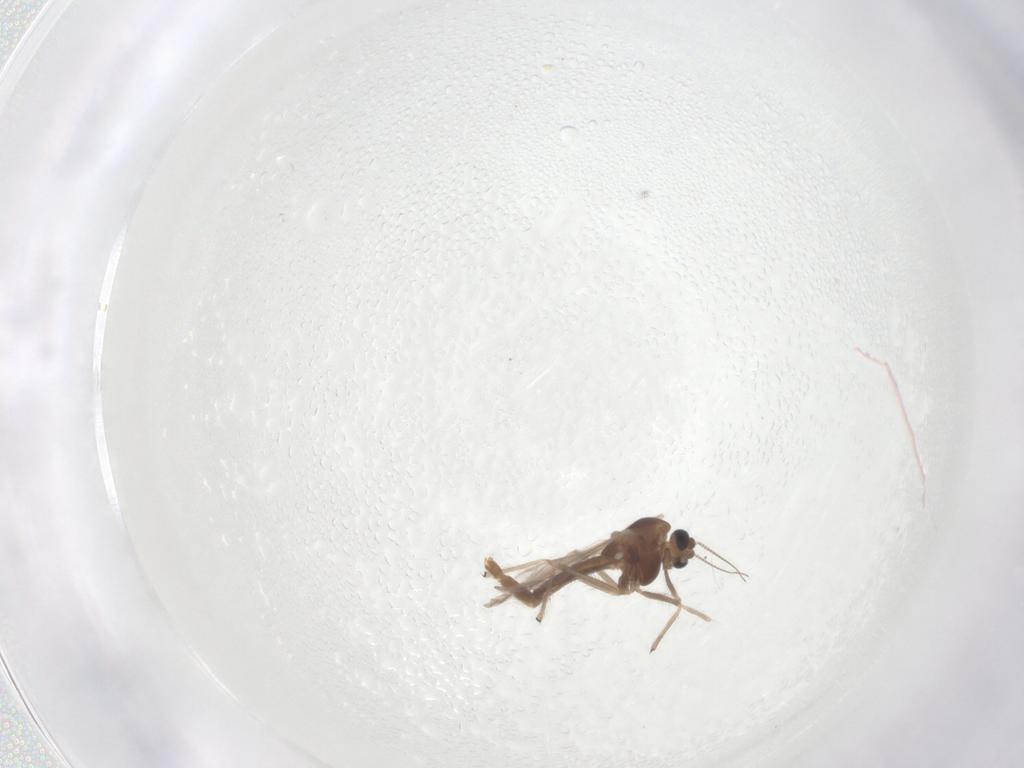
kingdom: Animalia
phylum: Arthropoda
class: Insecta
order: Diptera
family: Chironomidae
